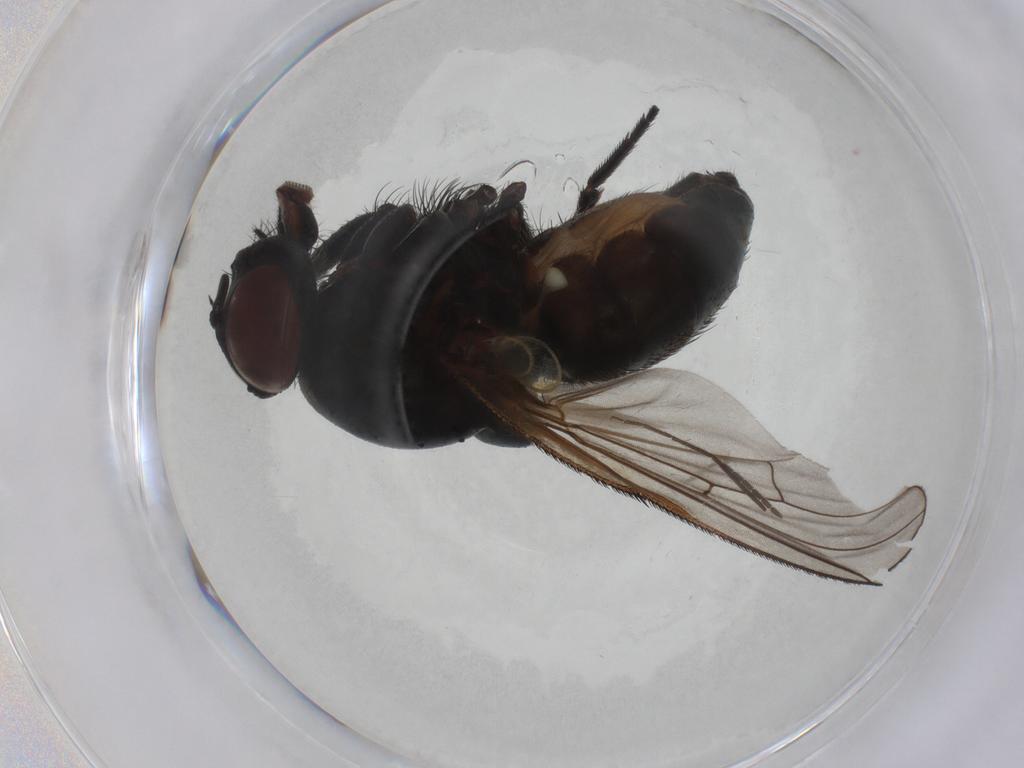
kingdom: Animalia
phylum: Arthropoda
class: Insecta
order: Diptera
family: Muscidae
